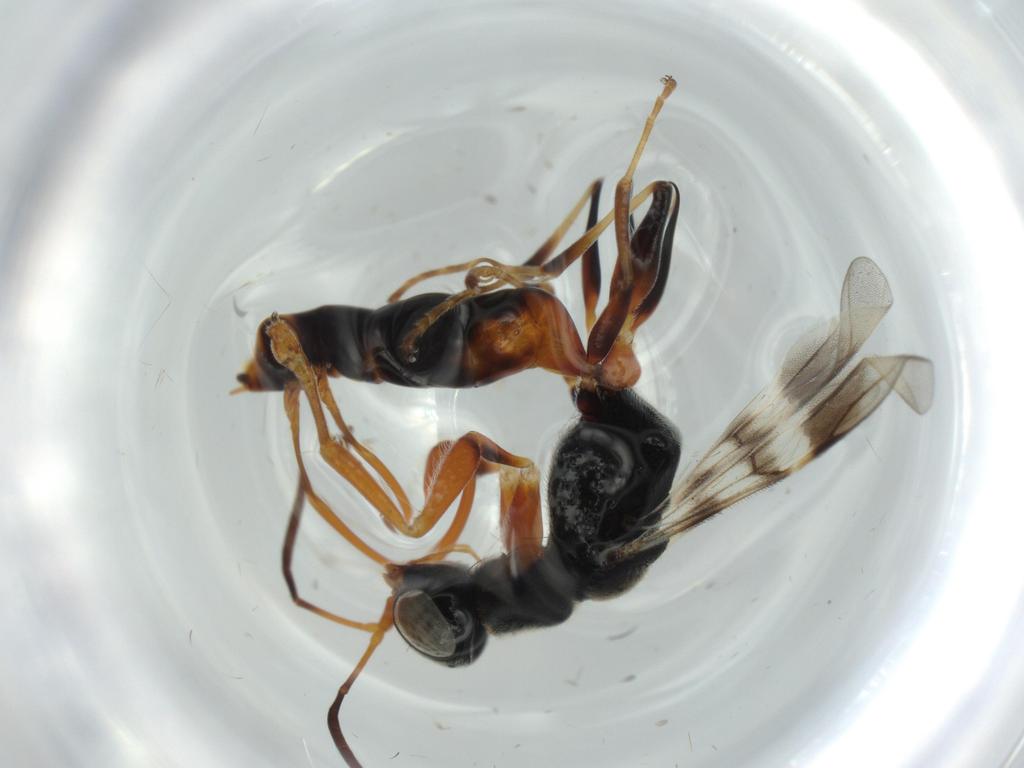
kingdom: Animalia
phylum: Arthropoda
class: Insecta
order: Hymenoptera
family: Dryinidae
